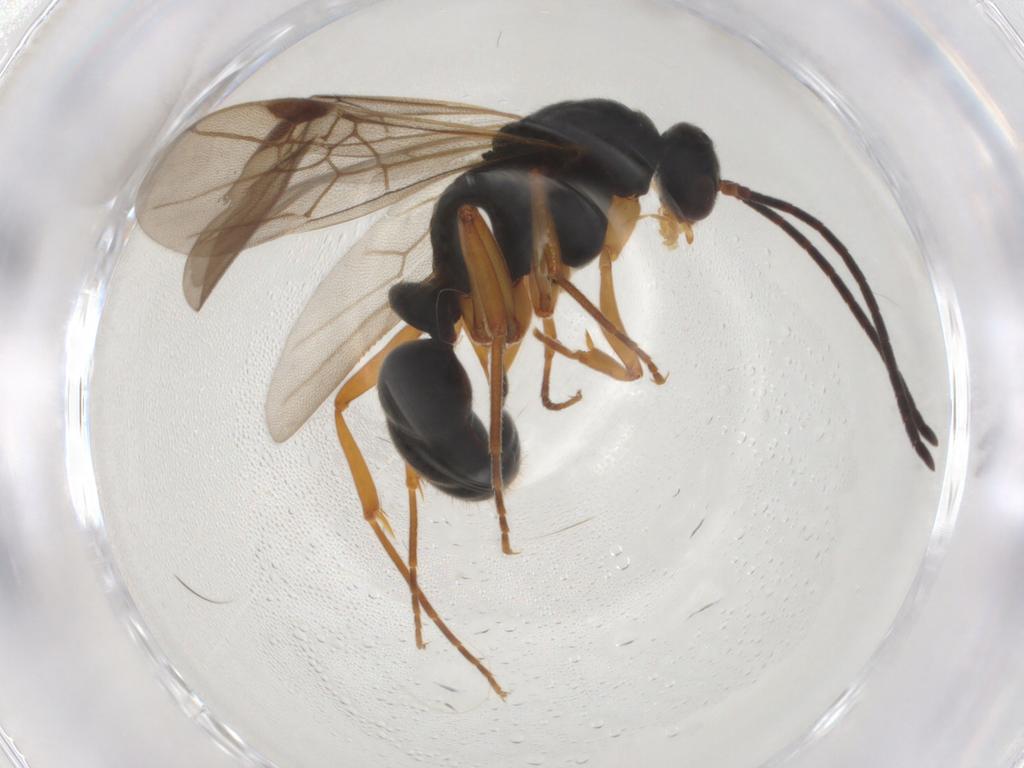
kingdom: Animalia
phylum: Arthropoda
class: Insecta
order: Hymenoptera
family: Formicidae
